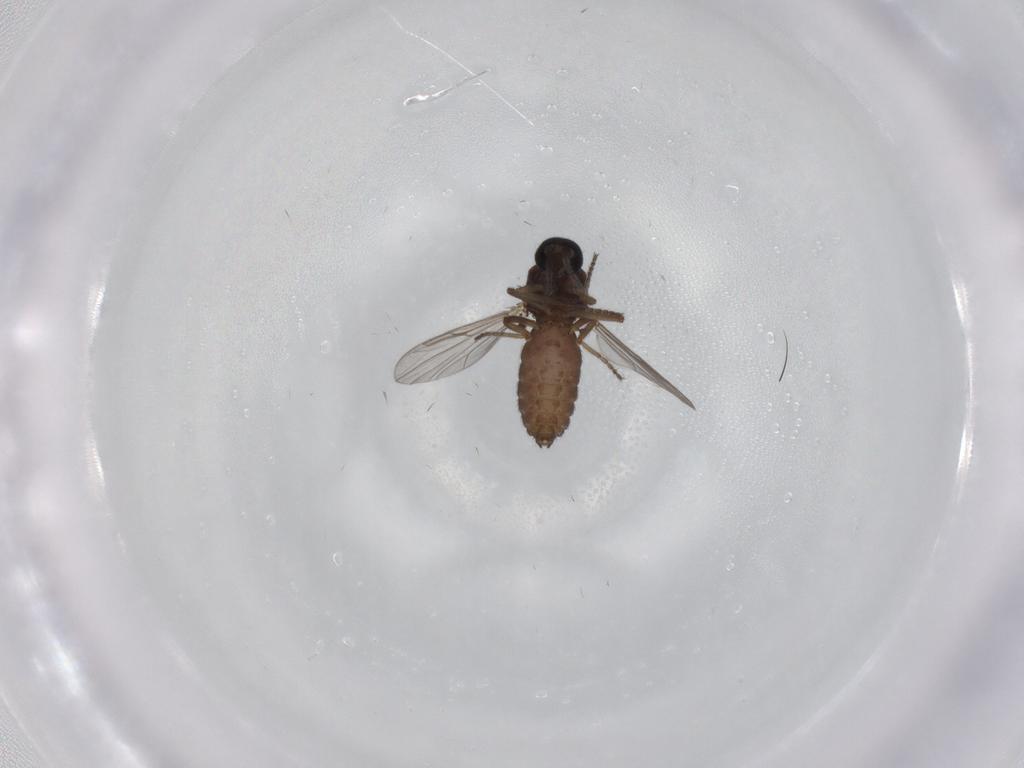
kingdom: Animalia
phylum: Arthropoda
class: Insecta
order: Diptera
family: Ceratopogonidae
